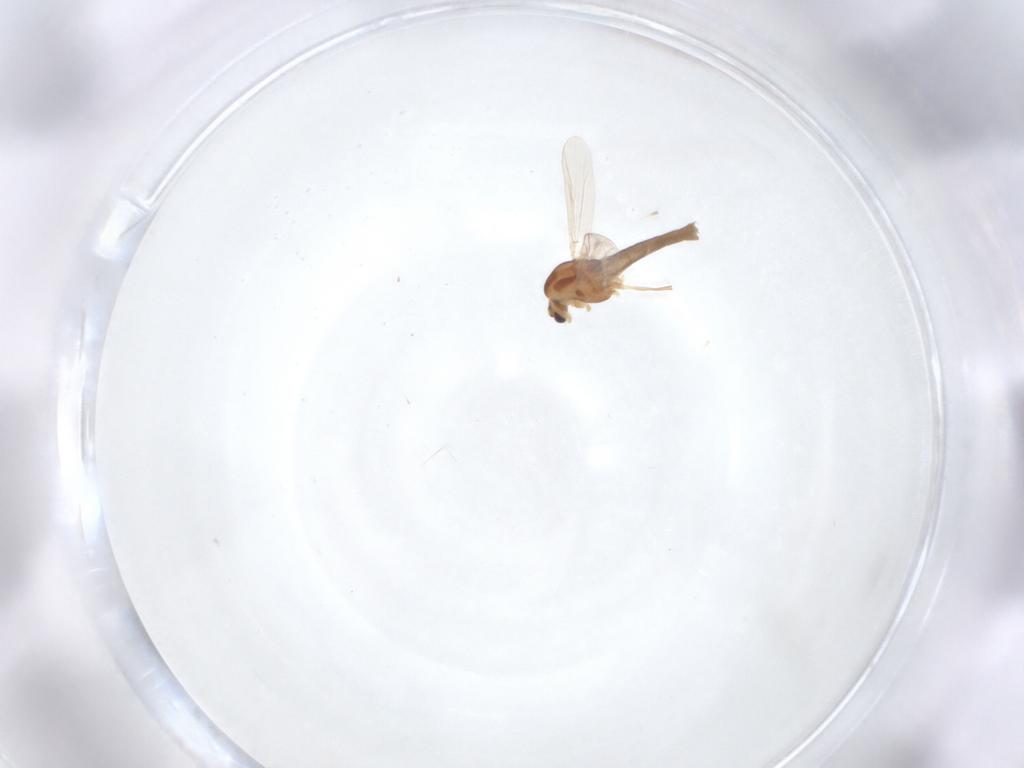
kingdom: Animalia
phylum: Arthropoda
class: Insecta
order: Diptera
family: Chironomidae
